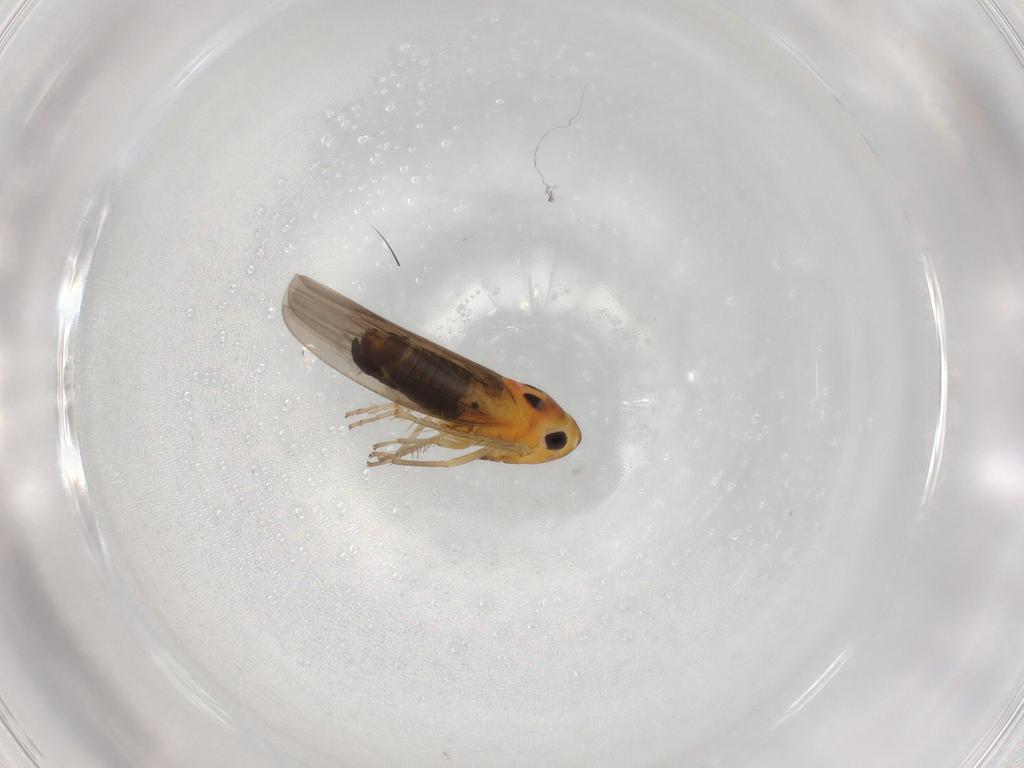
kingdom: Animalia
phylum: Arthropoda
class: Insecta
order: Hemiptera
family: Cicadellidae
